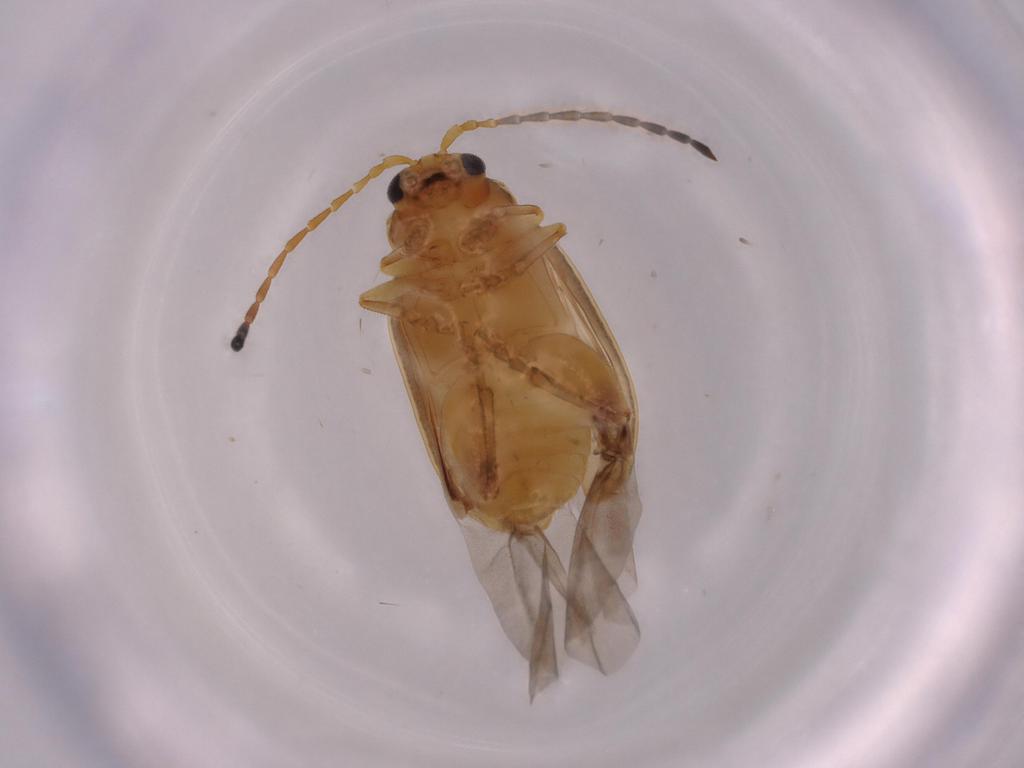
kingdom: Animalia
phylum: Arthropoda
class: Insecta
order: Coleoptera
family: Chrysomelidae
